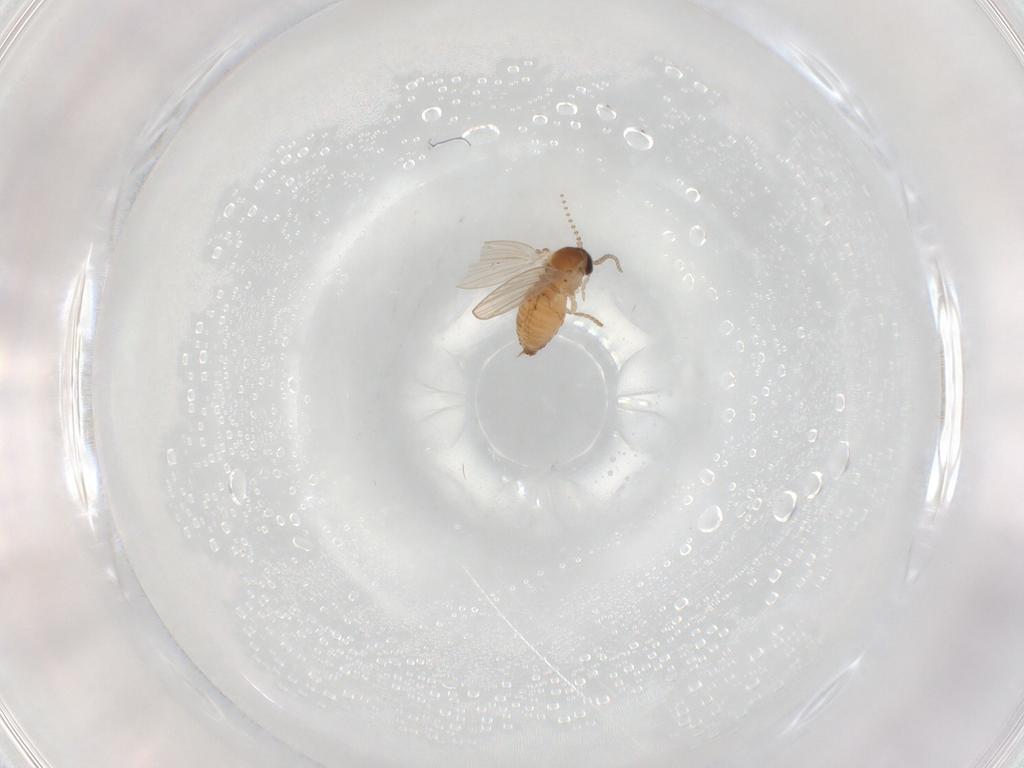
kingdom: Animalia
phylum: Arthropoda
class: Insecta
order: Diptera
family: Psychodidae
